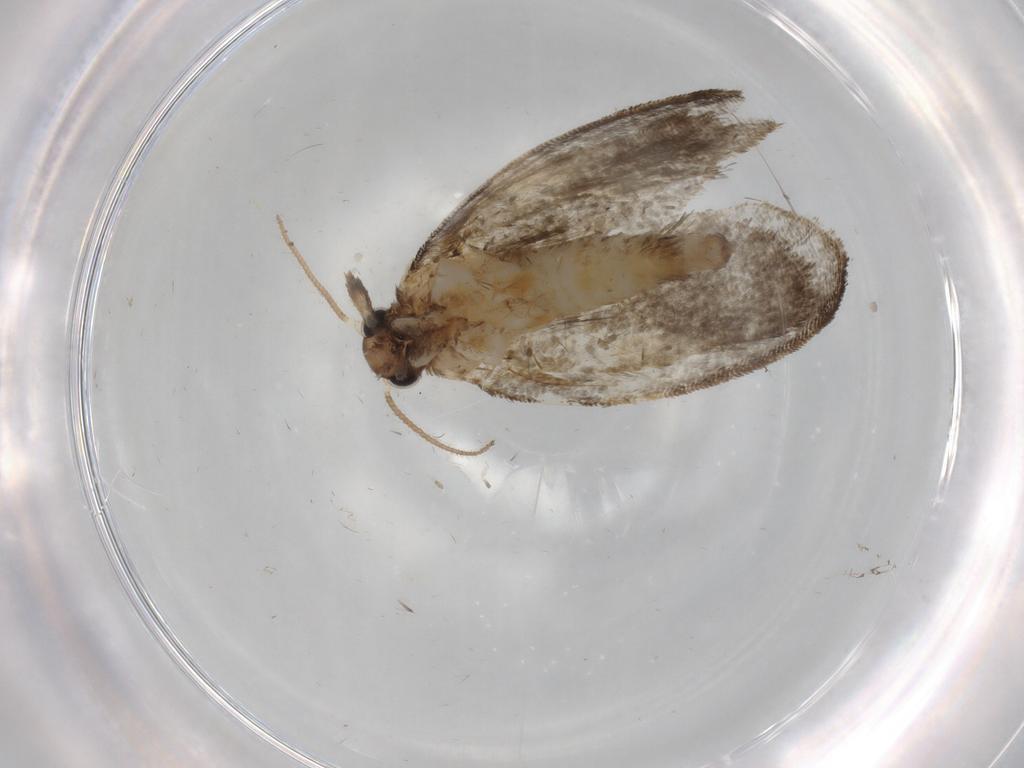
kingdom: Animalia
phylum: Arthropoda
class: Insecta
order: Lepidoptera
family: Psychidae
